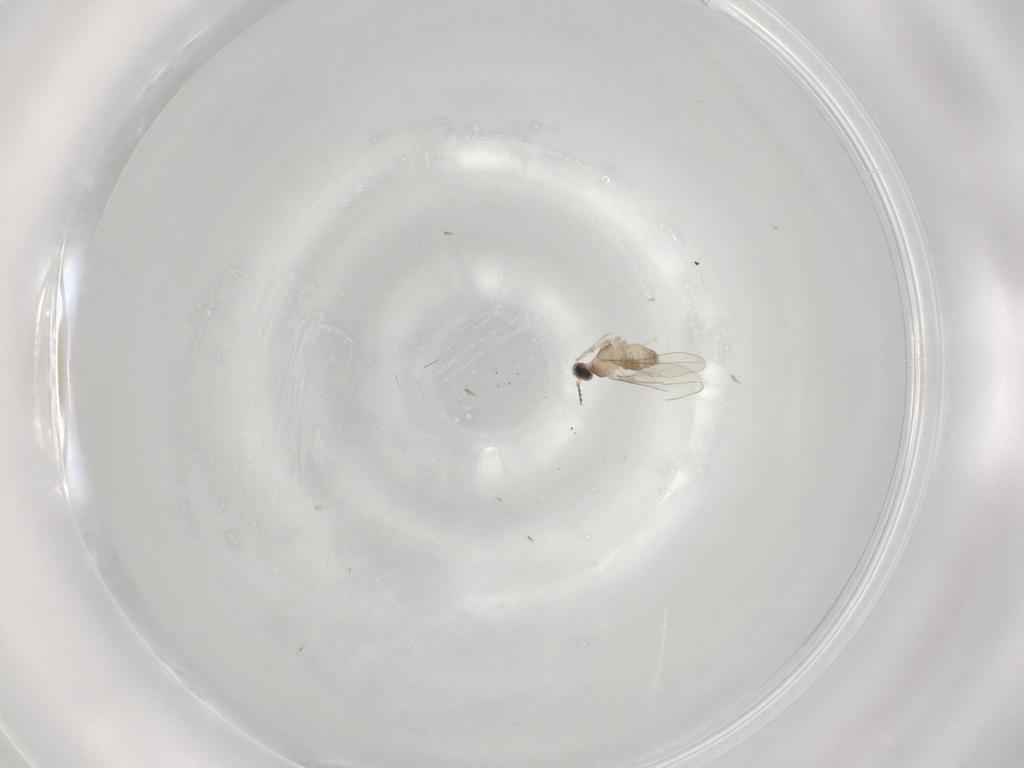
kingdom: Animalia
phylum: Arthropoda
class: Insecta
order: Diptera
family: Cecidomyiidae
